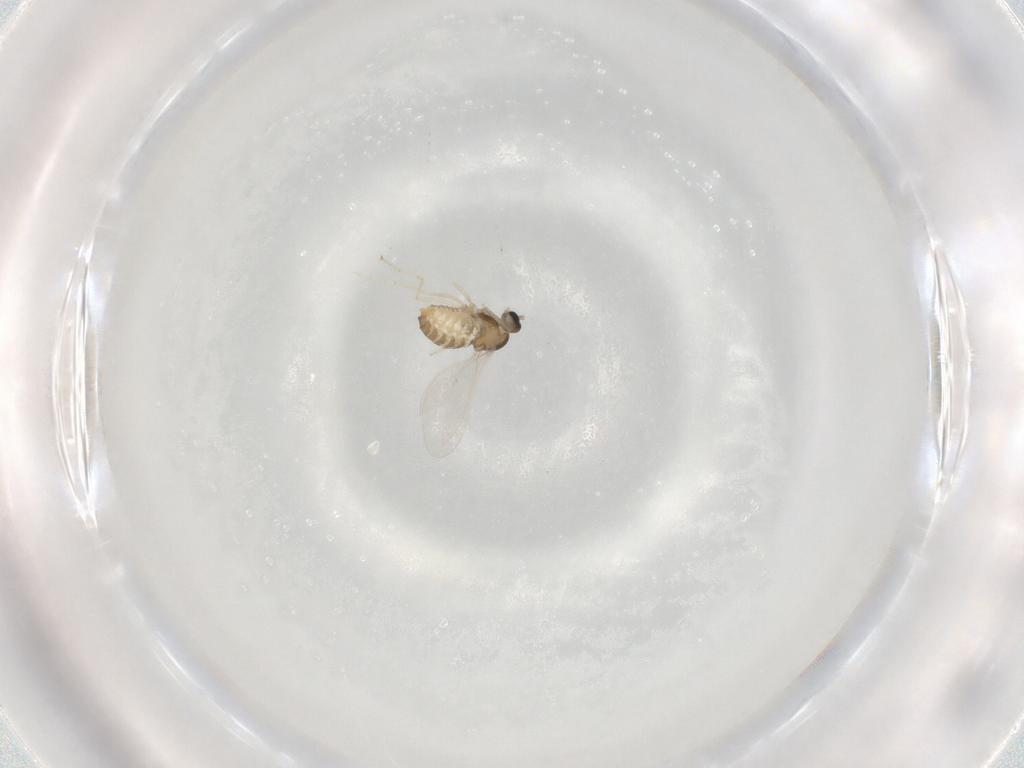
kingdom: Animalia
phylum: Arthropoda
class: Insecta
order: Diptera
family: Cecidomyiidae
